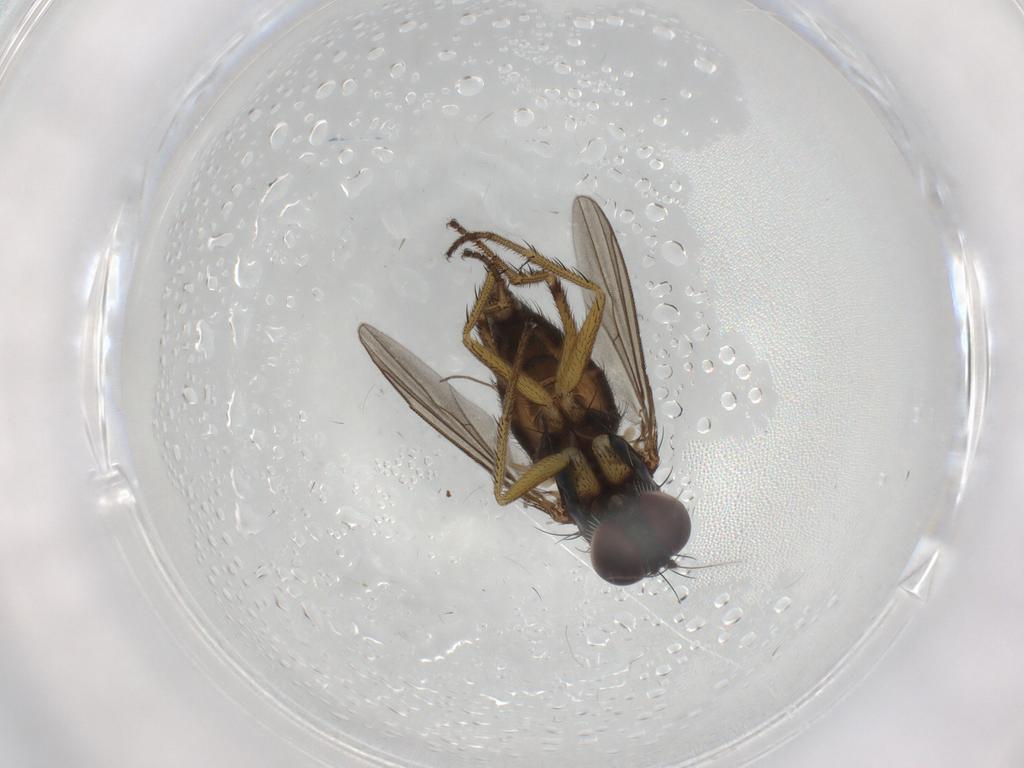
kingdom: Animalia
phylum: Arthropoda
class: Insecta
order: Diptera
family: Dolichopodidae
